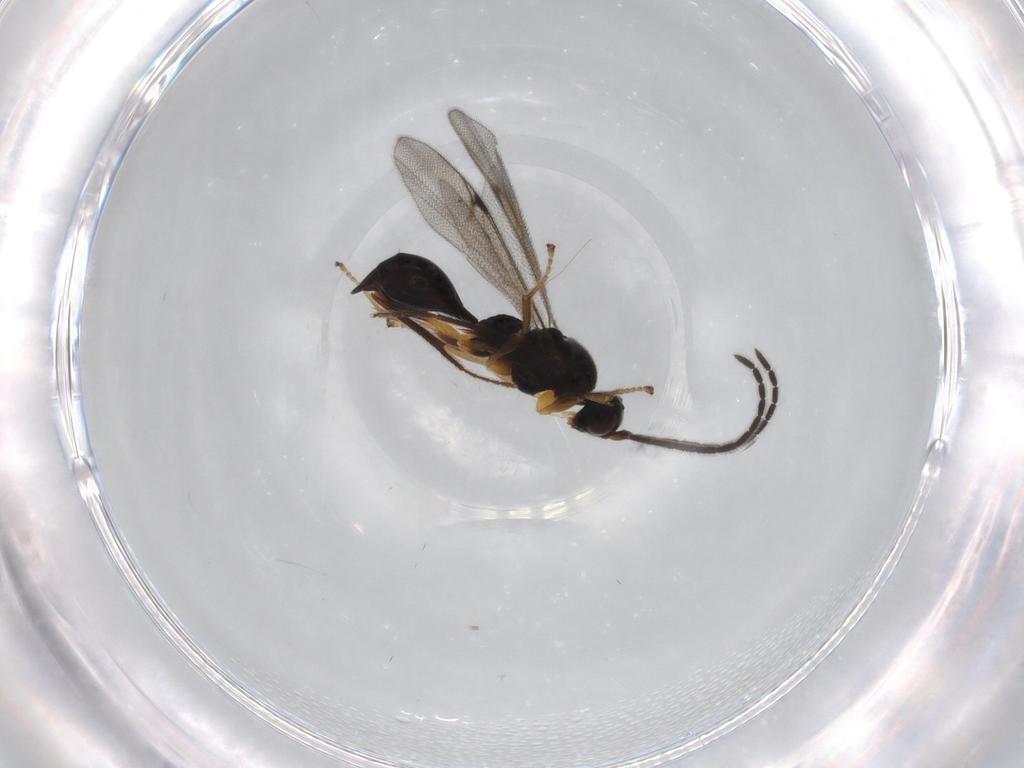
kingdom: Animalia
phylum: Arthropoda
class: Insecta
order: Hymenoptera
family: Proctotrupidae
